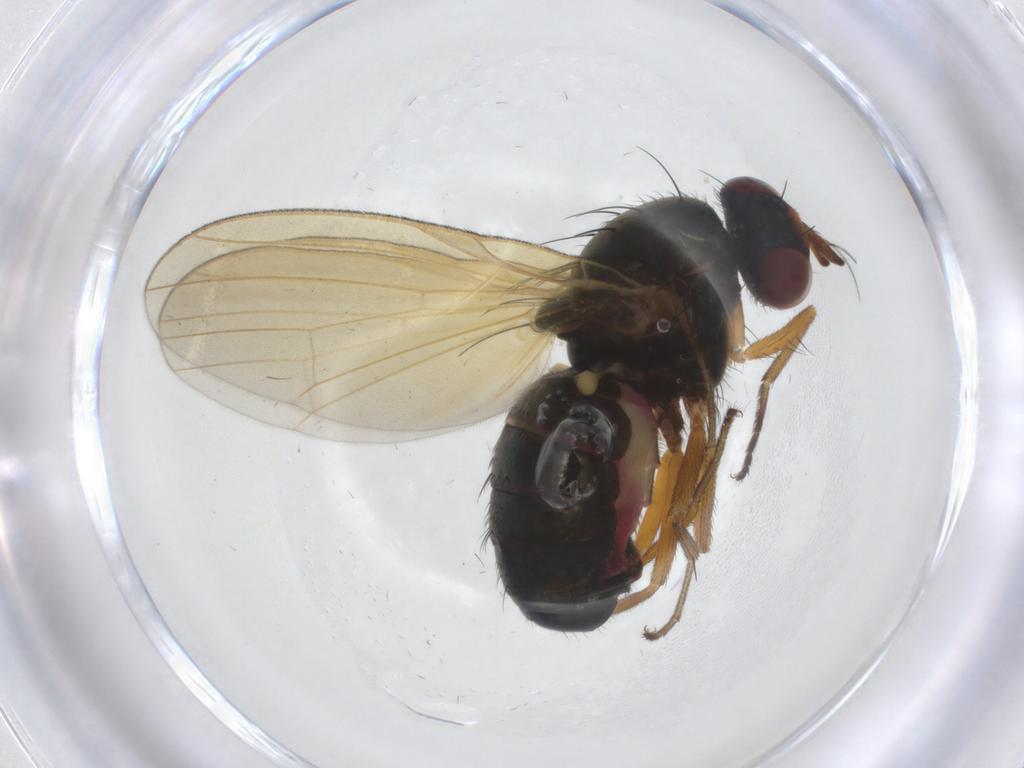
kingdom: Animalia
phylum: Arthropoda
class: Insecta
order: Diptera
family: Lauxaniidae
